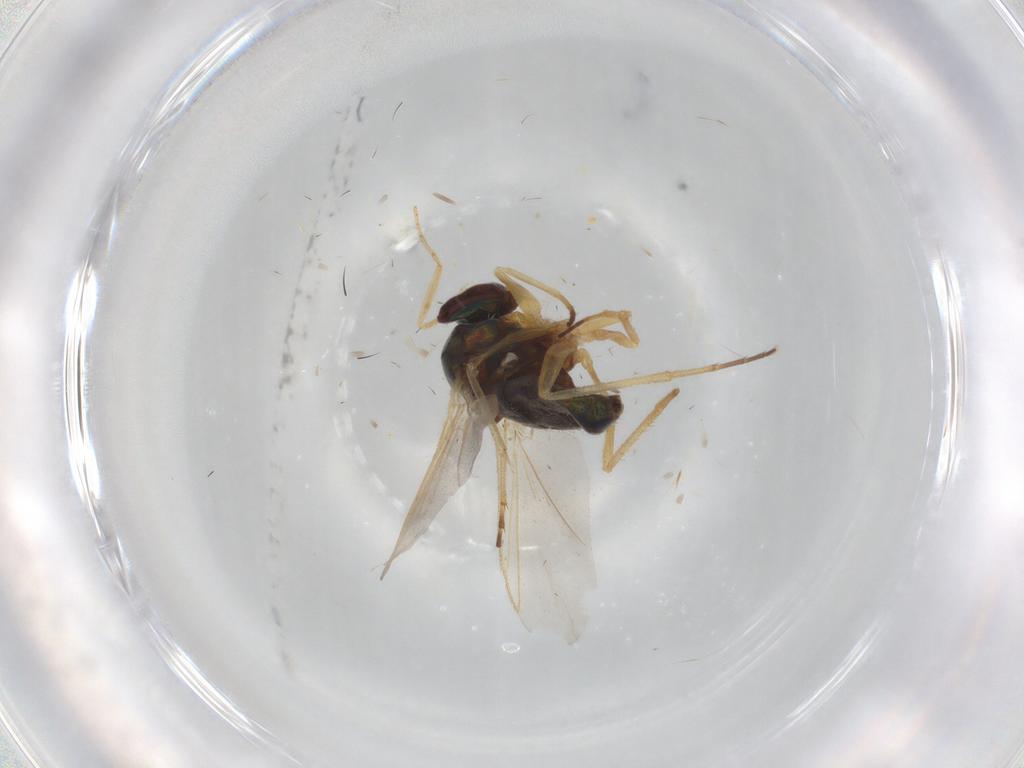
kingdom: Animalia
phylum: Arthropoda
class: Insecta
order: Diptera
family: Dolichopodidae
